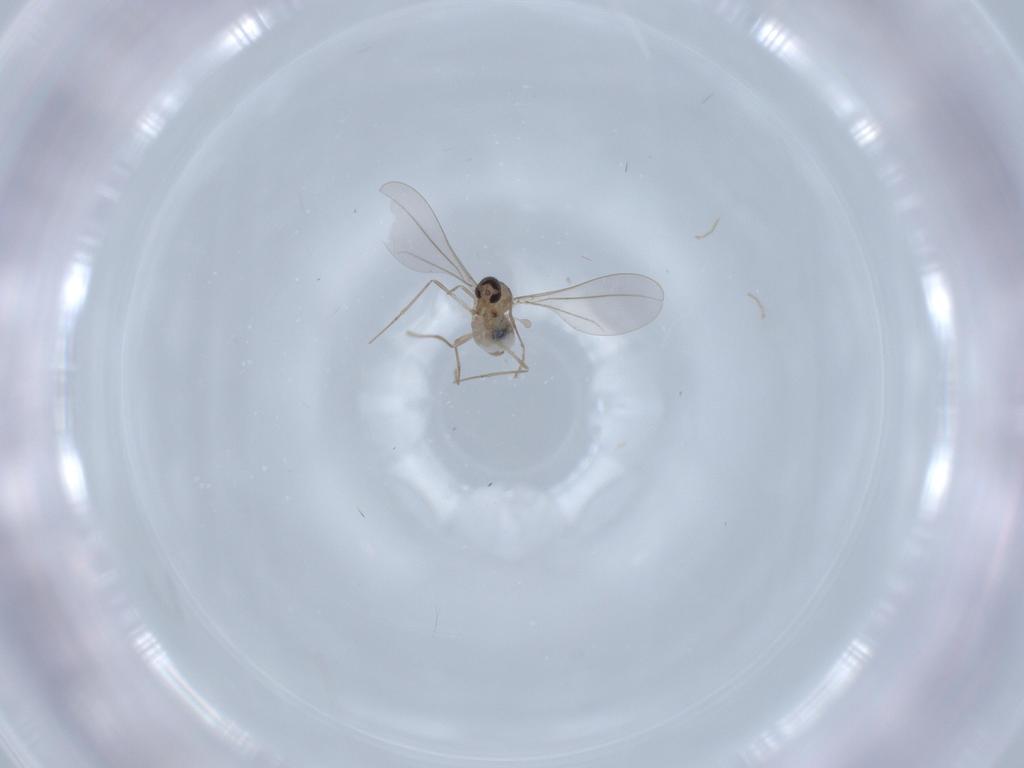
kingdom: Animalia
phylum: Arthropoda
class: Insecta
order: Diptera
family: Cecidomyiidae
